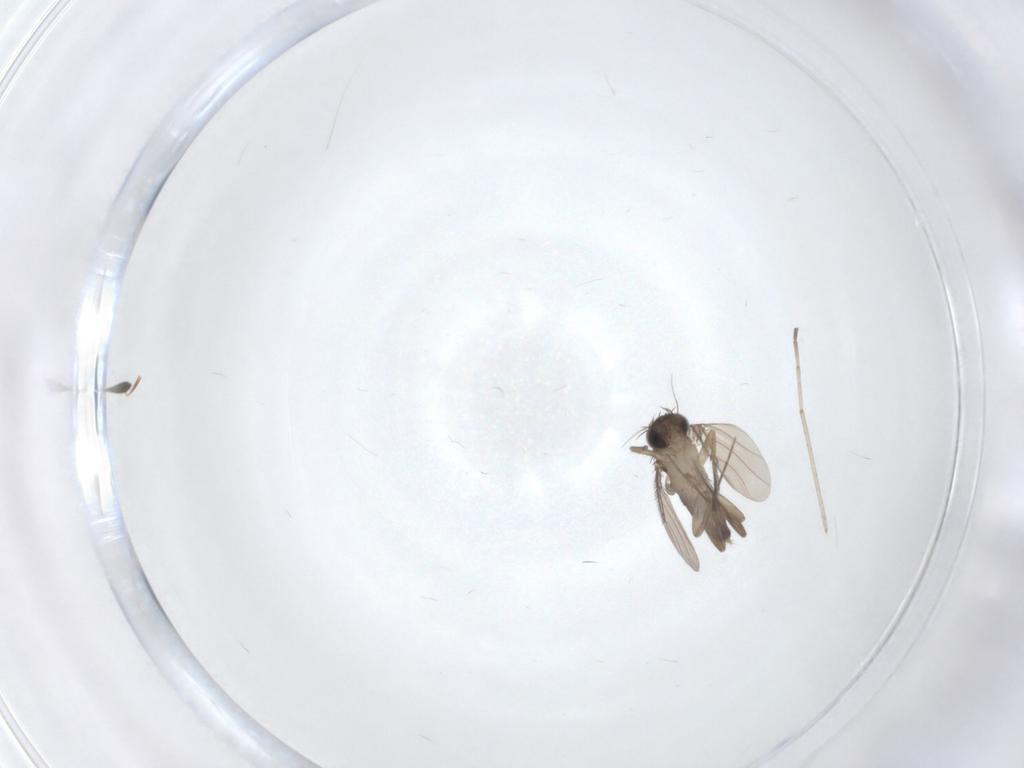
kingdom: Animalia
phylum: Arthropoda
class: Insecta
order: Diptera
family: Phoridae
